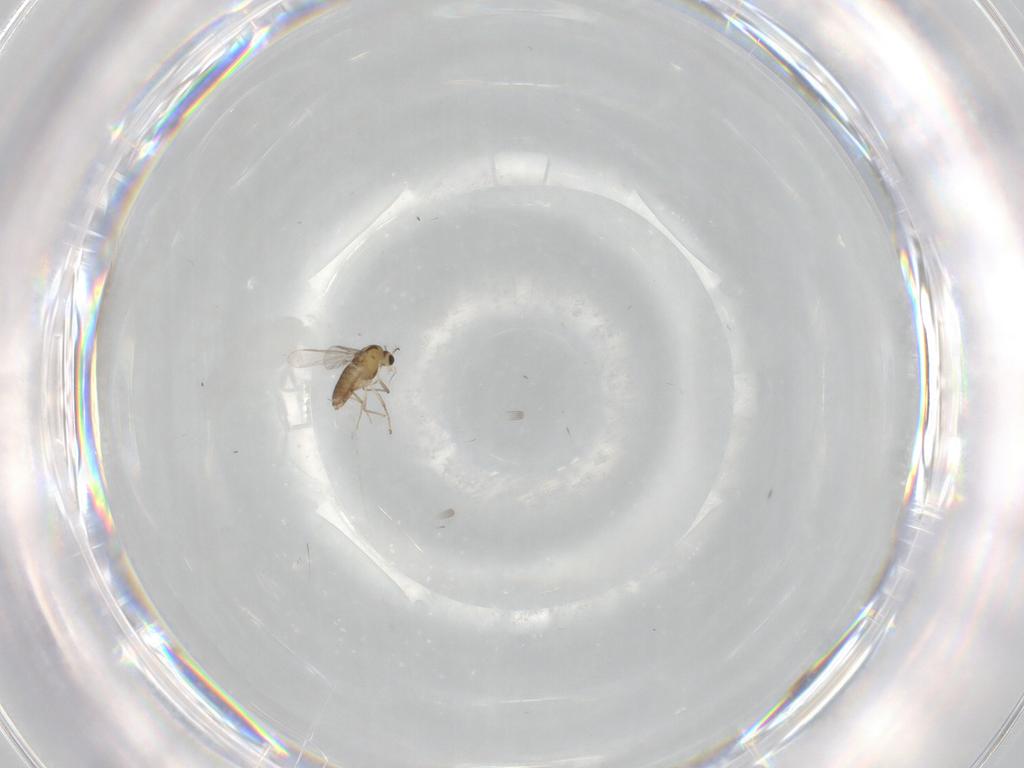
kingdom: Animalia
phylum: Arthropoda
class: Insecta
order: Diptera
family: Chironomidae
